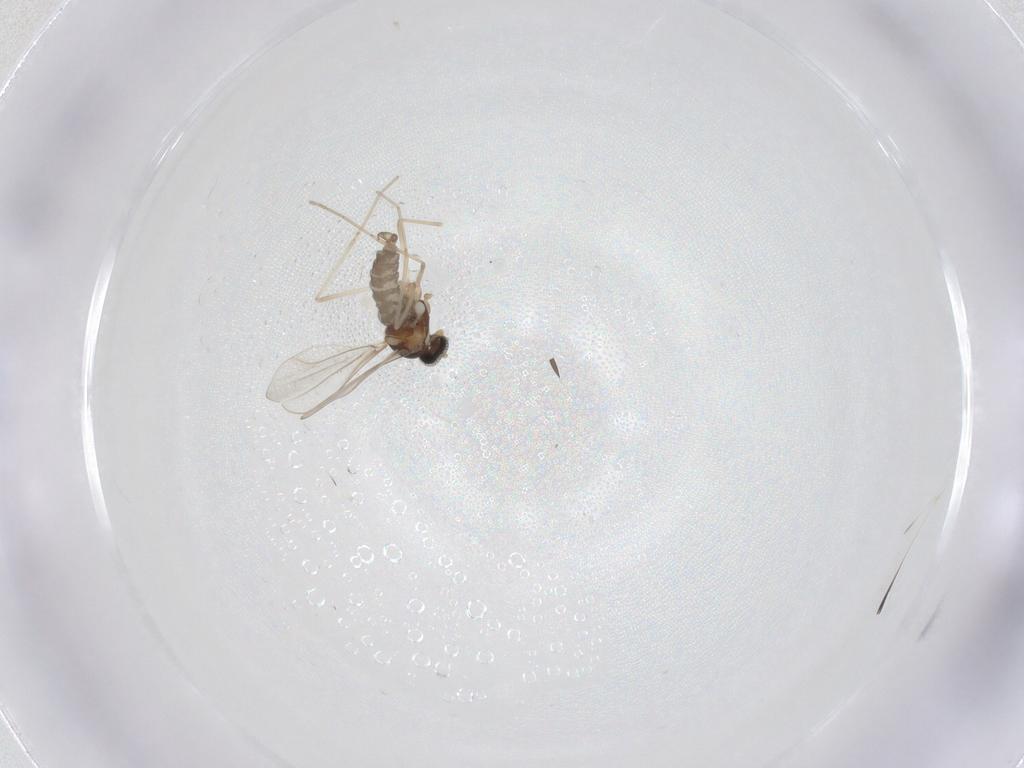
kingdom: Animalia
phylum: Arthropoda
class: Insecta
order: Diptera
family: Cecidomyiidae
